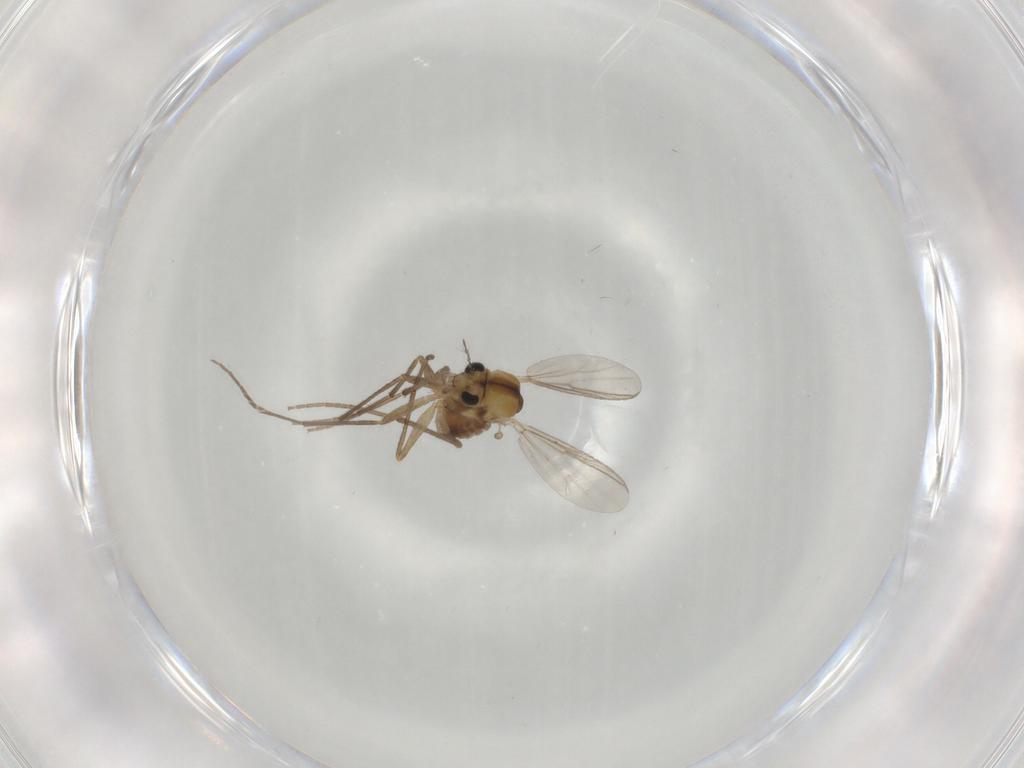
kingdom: Animalia
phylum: Arthropoda
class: Insecta
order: Diptera
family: Chironomidae
